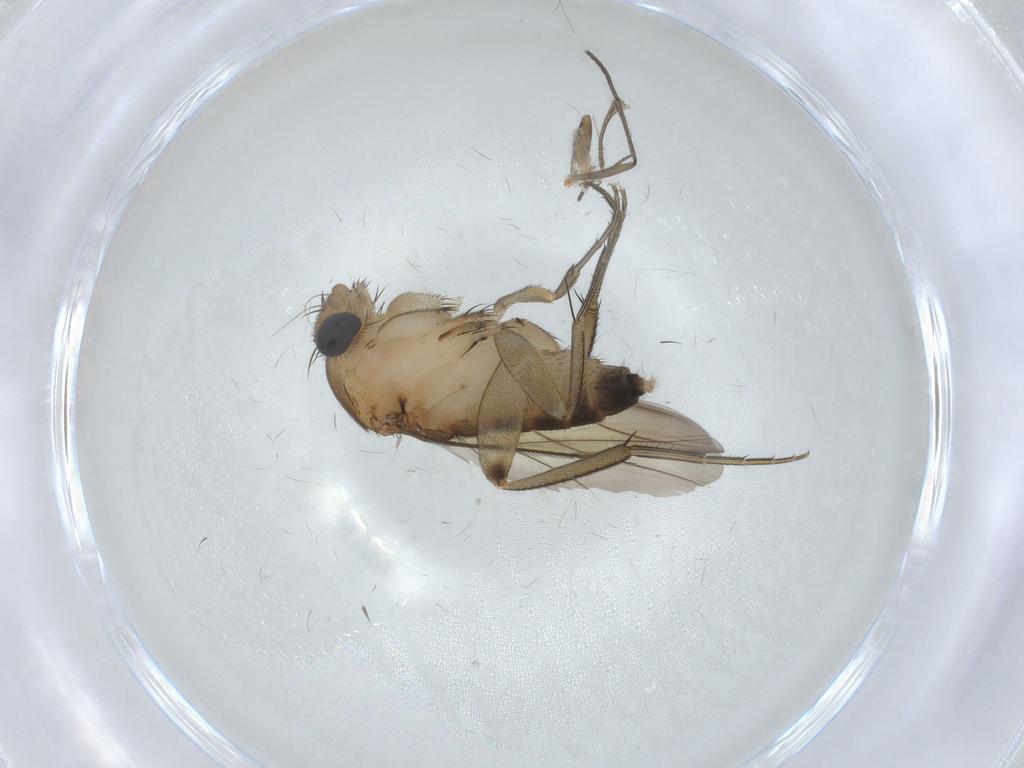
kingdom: Animalia
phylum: Arthropoda
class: Insecta
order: Diptera
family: Phoridae
